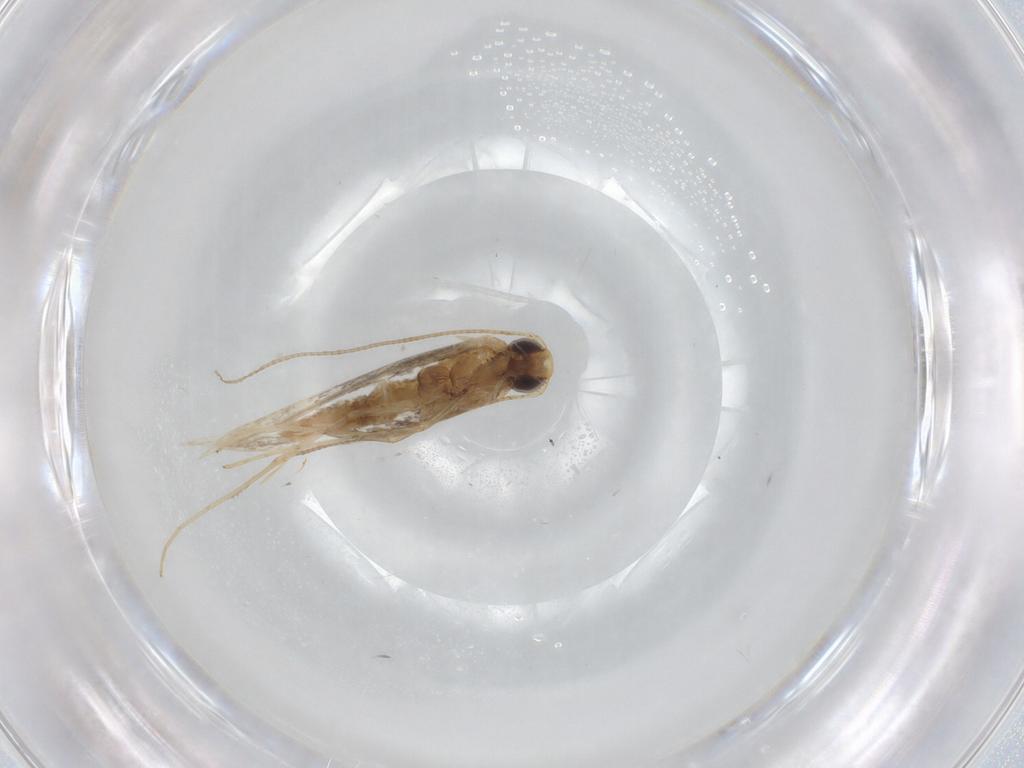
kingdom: Animalia
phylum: Arthropoda
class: Insecta
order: Lepidoptera
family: Gracillariidae
